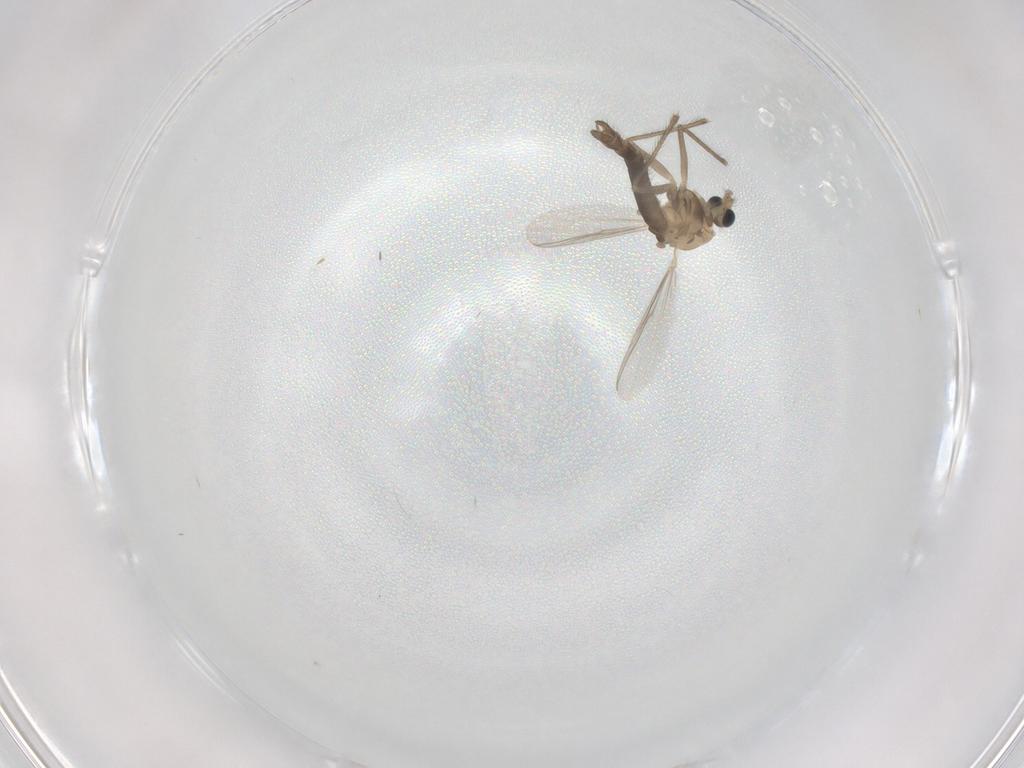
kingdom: Animalia
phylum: Arthropoda
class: Insecta
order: Diptera
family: Chironomidae
